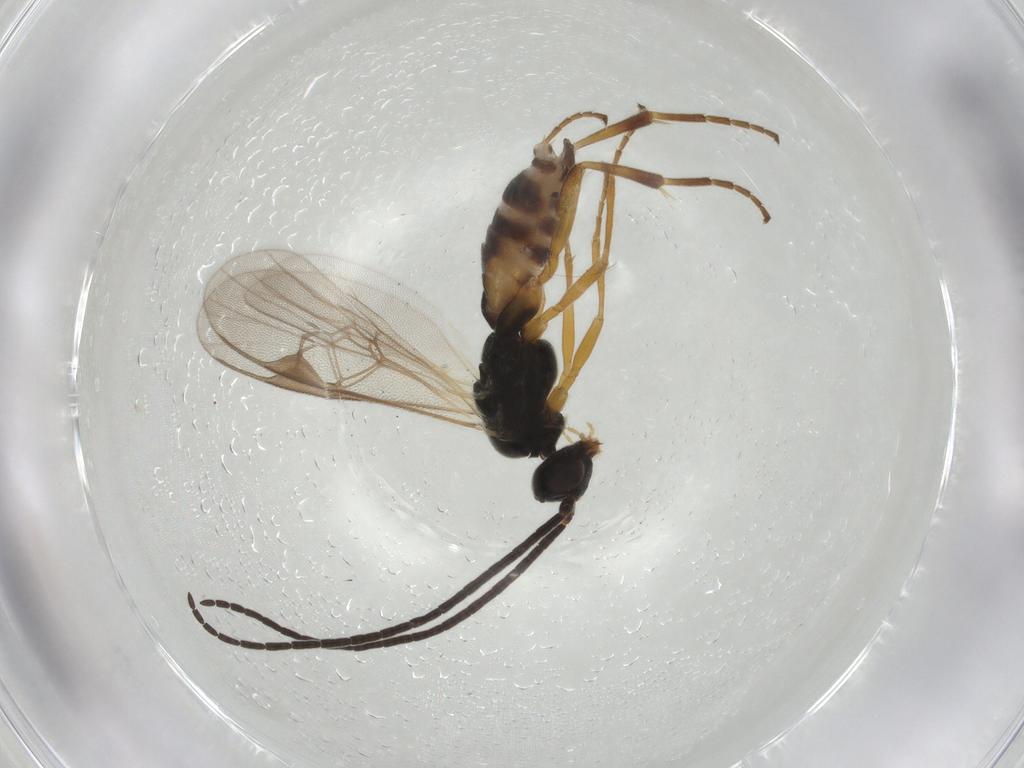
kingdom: Animalia
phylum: Arthropoda
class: Insecta
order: Hymenoptera
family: Braconidae
